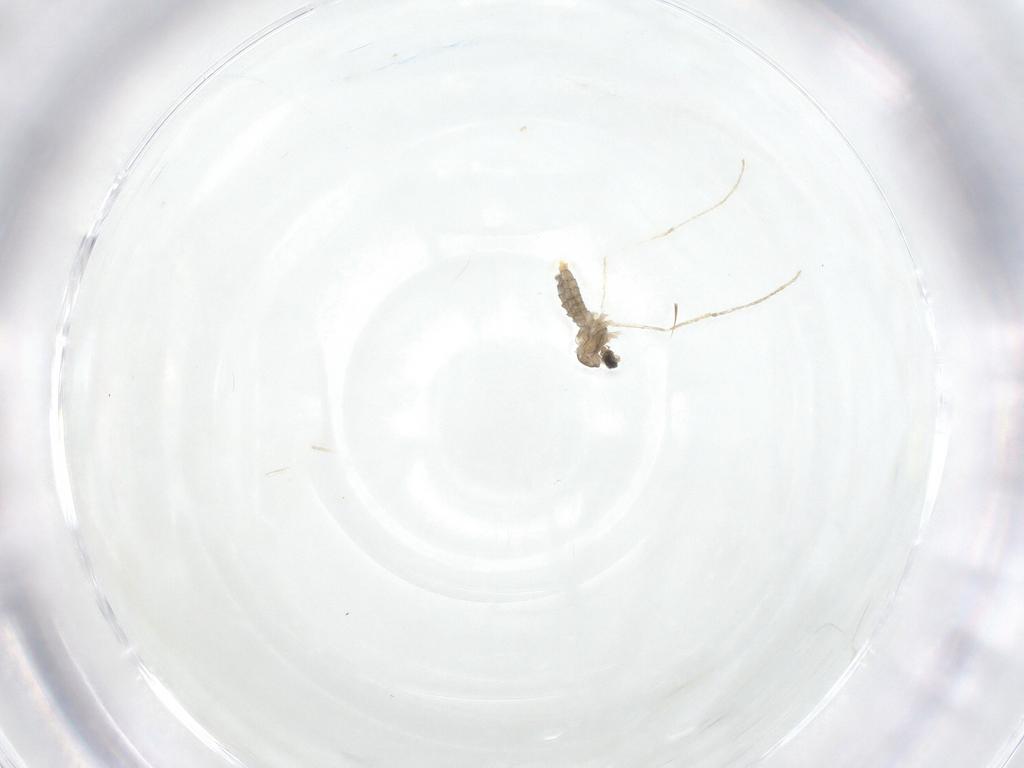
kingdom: Animalia
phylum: Arthropoda
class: Insecta
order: Diptera
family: Cecidomyiidae
